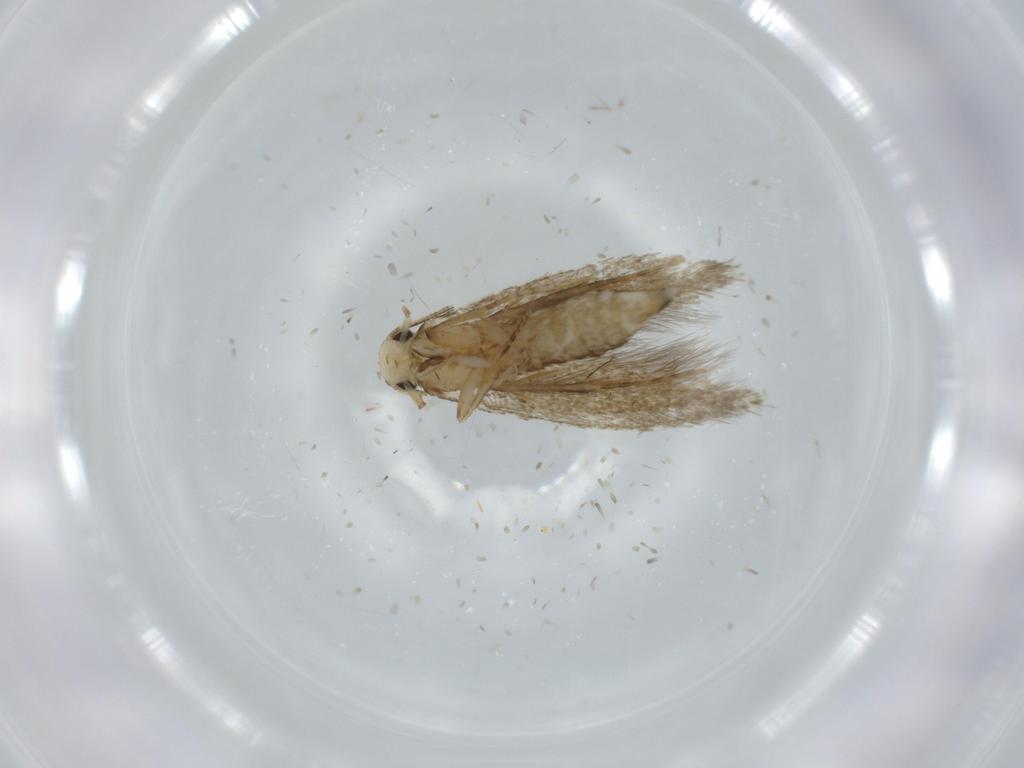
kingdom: Animalia
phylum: Arthropoda
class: Insecta
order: Lepidoptera
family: Tineidae
